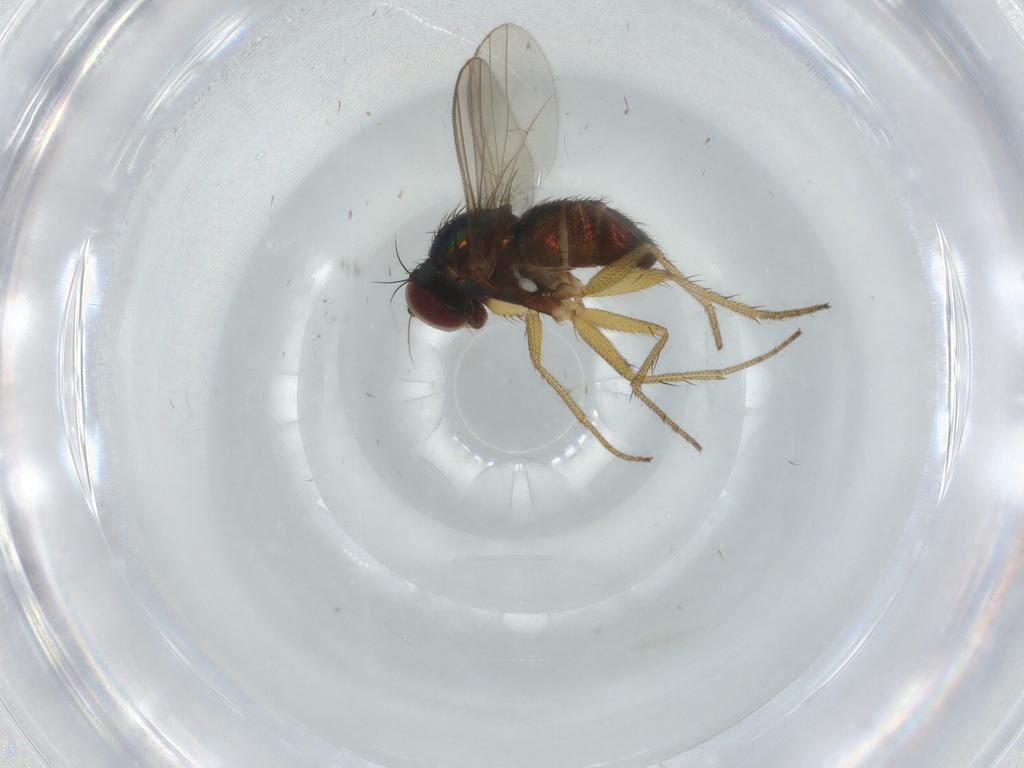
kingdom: Animalia
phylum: Arthropoda
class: Insecta
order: Diptera
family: Dolichopodidae
